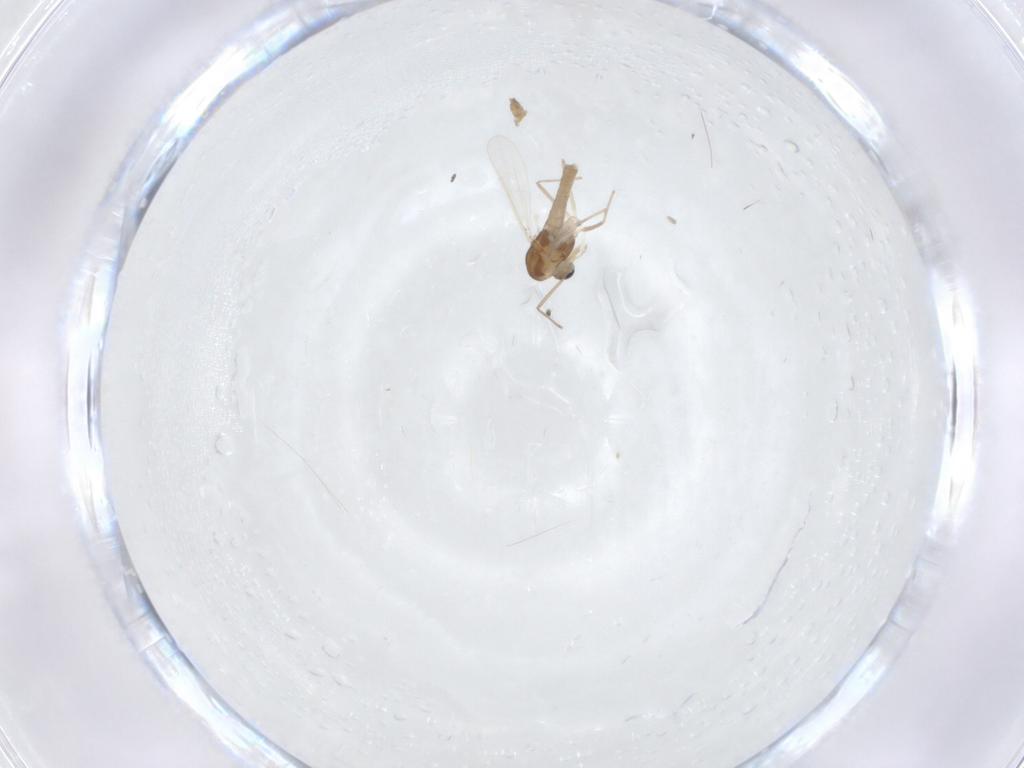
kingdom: Animalia
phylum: Arthropoda
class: Insecta
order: Diptera
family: Chironomidae
